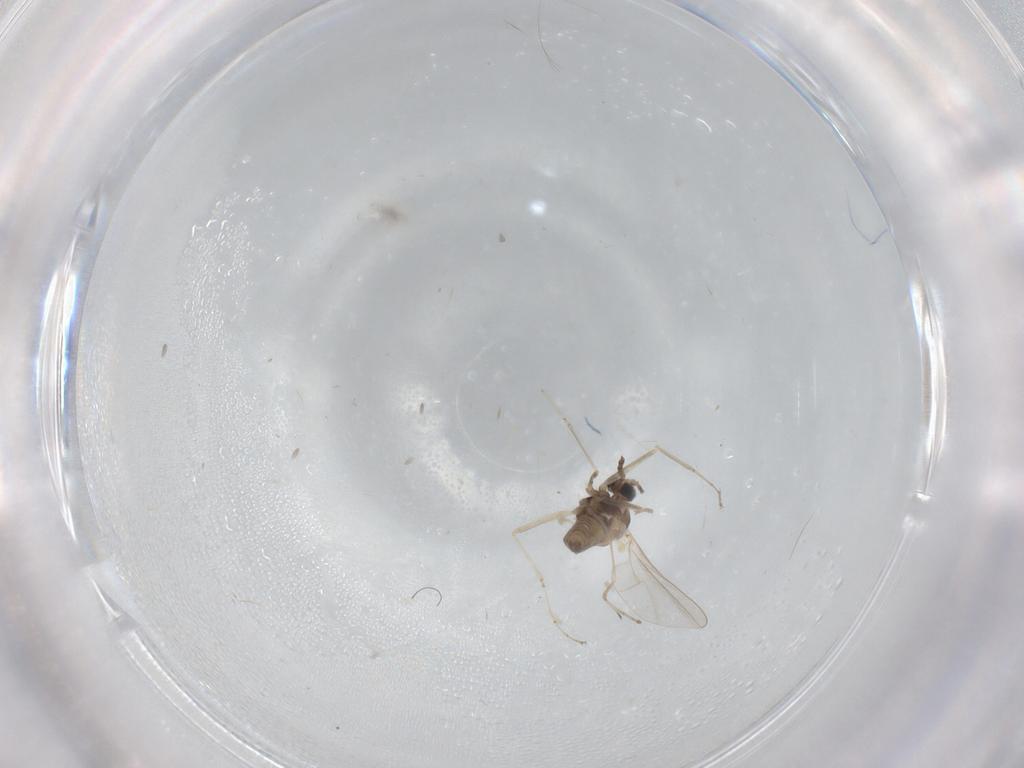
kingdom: Animalia
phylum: Arthropoda
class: Insecta
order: Diptera
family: Cecidomyiidae
